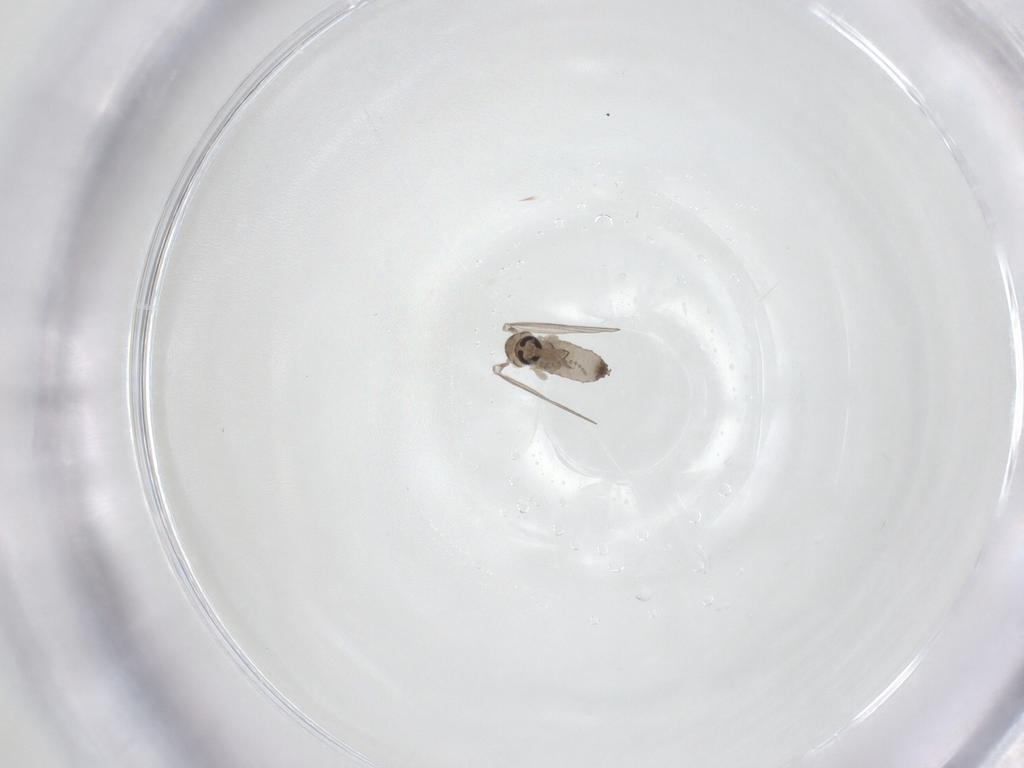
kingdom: Animalia
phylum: Arthropoda
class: Insecta
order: Diptera
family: Psychodidae
